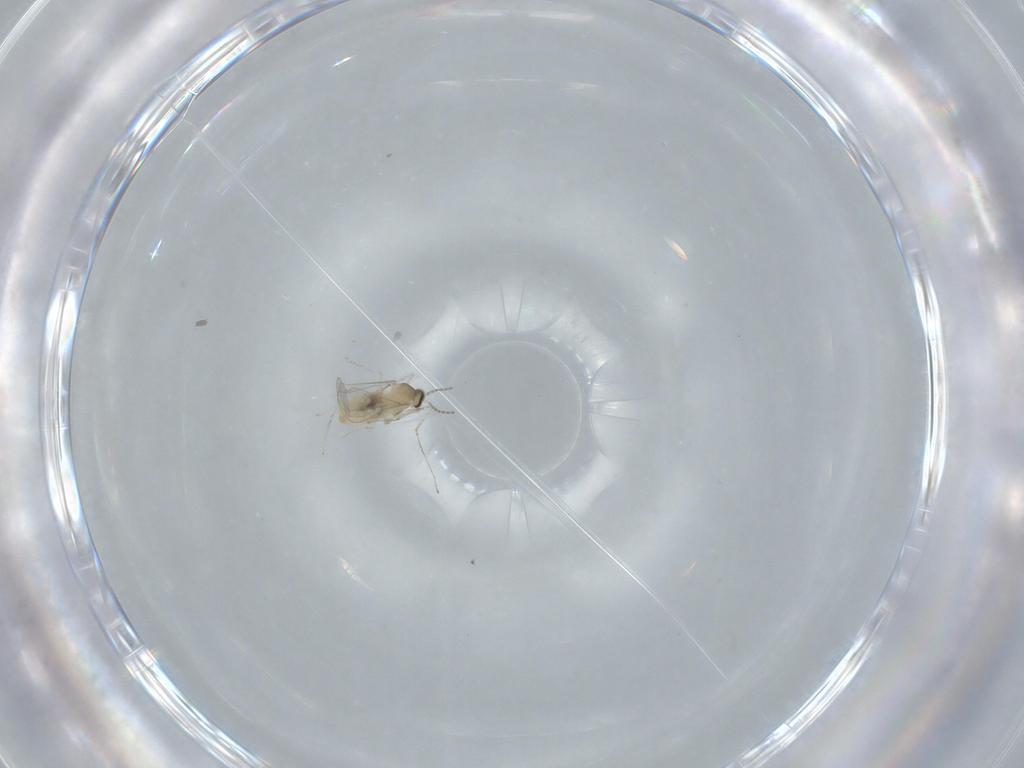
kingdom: Animalia
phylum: Arthropoda
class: Insecta
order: Diptera
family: Cecidomyiidae
